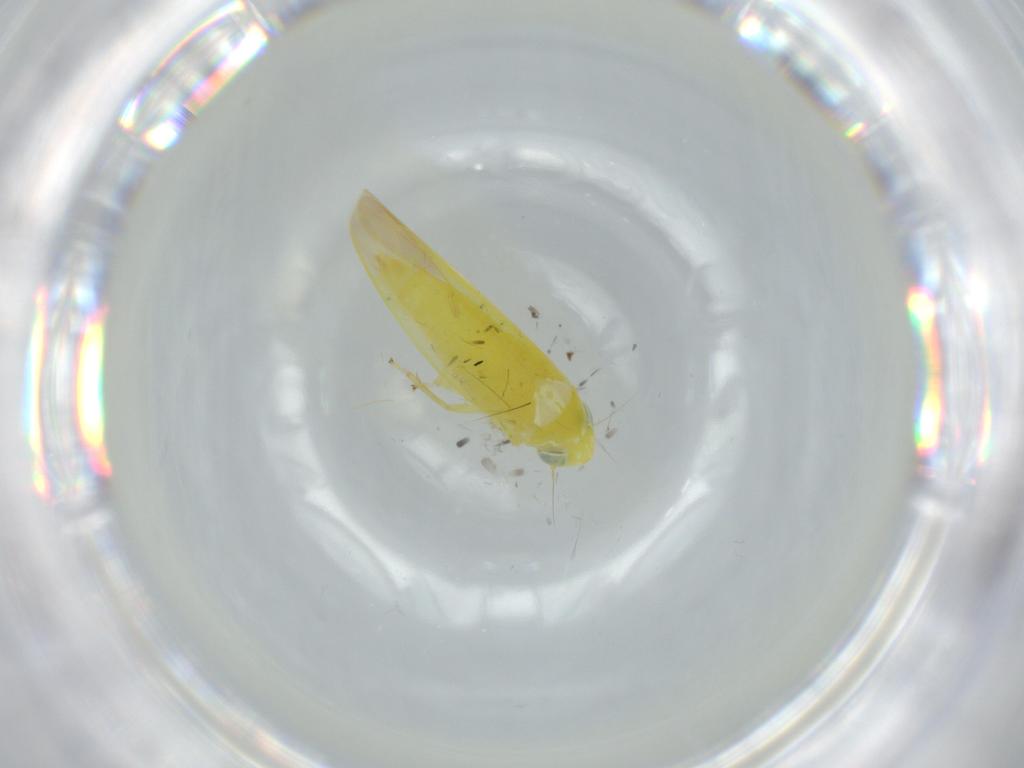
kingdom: Animalia
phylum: Arthropoda
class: Insecta
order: Hemiptera
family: Cicadellidae
